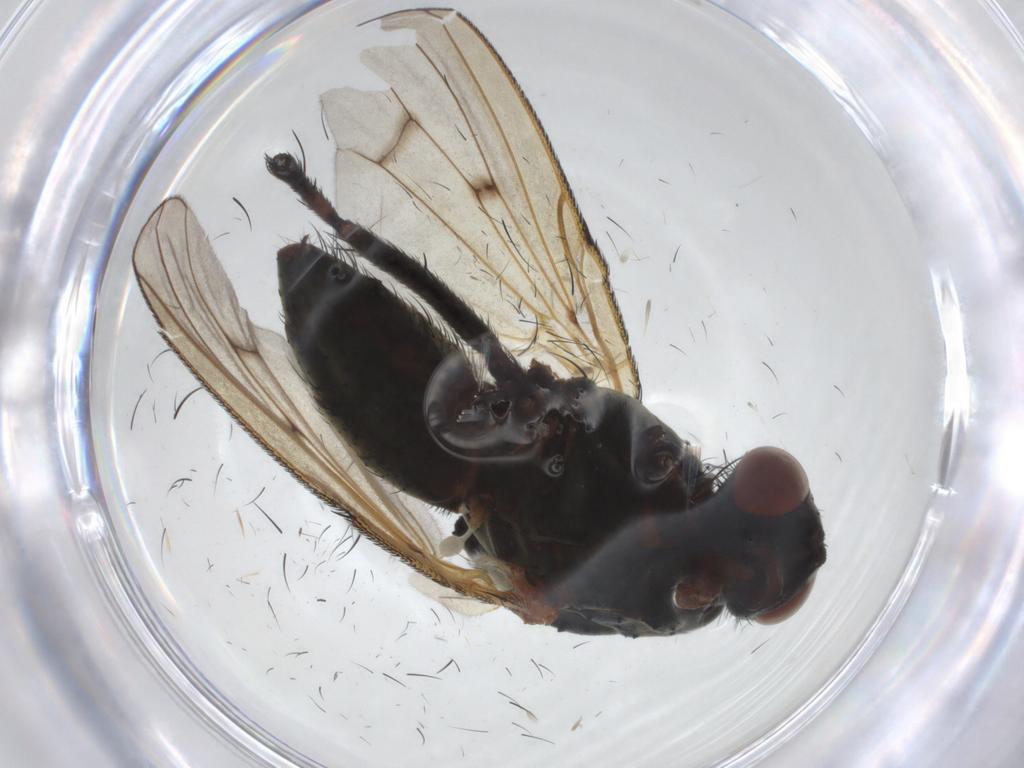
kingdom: Animalia
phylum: Arthropoda
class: Insecta
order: Diptera
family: Anthomyiidae
